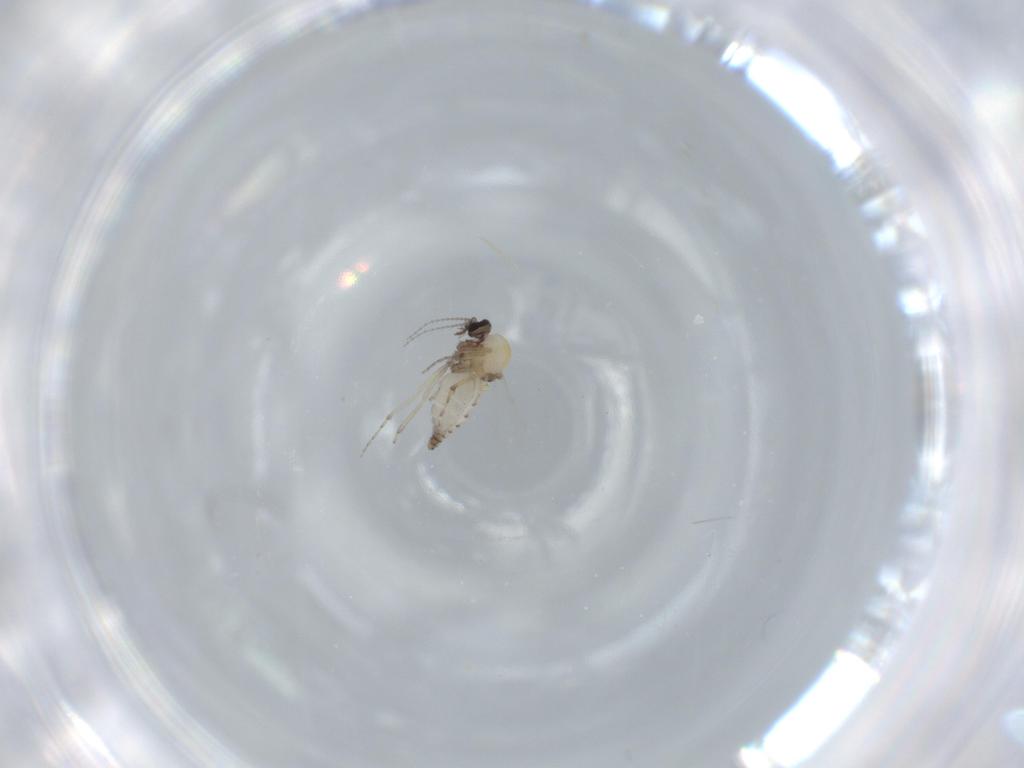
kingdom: Animalia
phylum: Arthropoda
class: Insecta
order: Diptera
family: Ceratopogonidae
